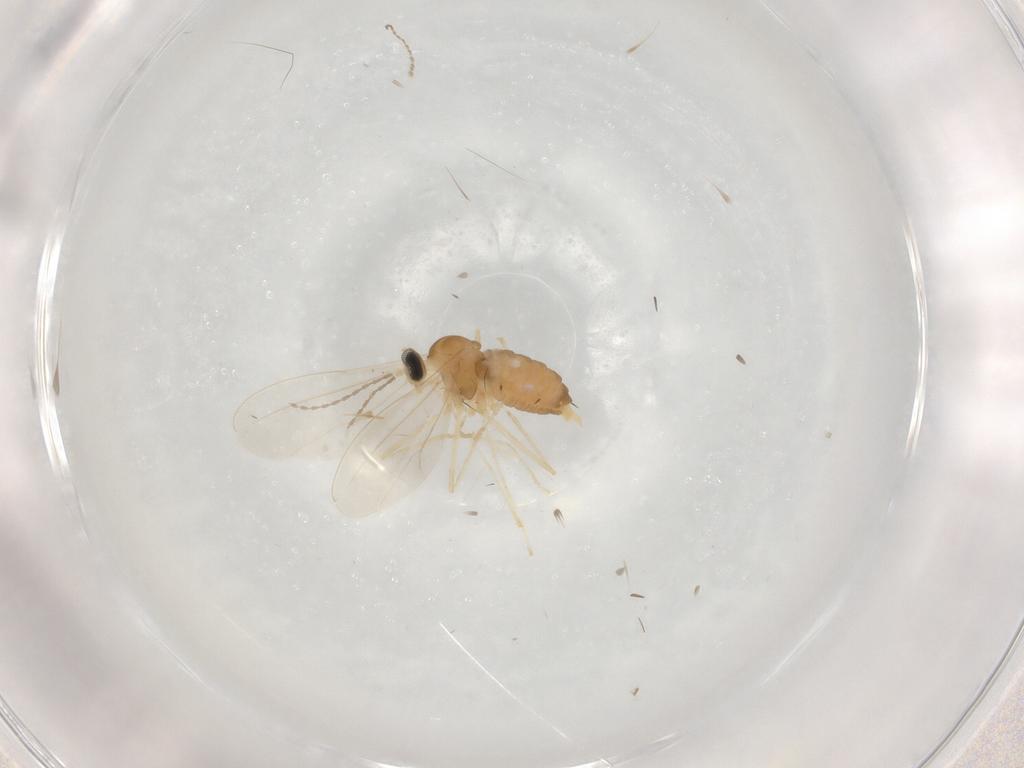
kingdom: Animalia
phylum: Arthropoda
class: Insecta
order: Diptera
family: Cecidomyiidae
